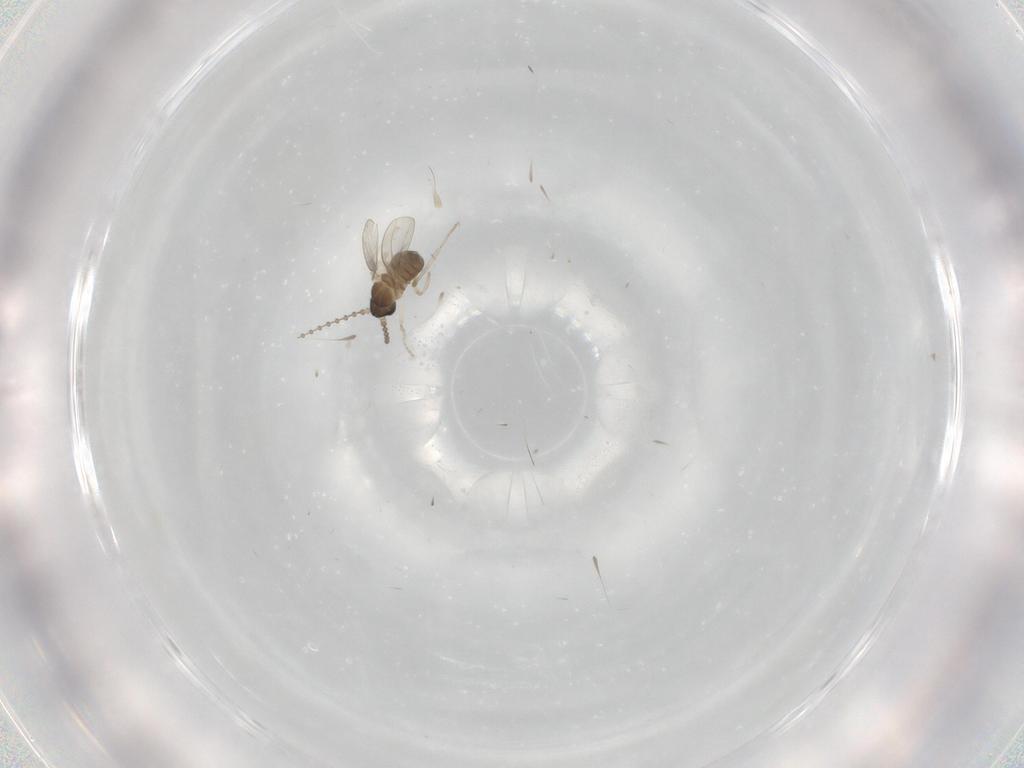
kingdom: Animalia
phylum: Arthropoda
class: Insecta
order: Diptera
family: Cecidomyiidae
